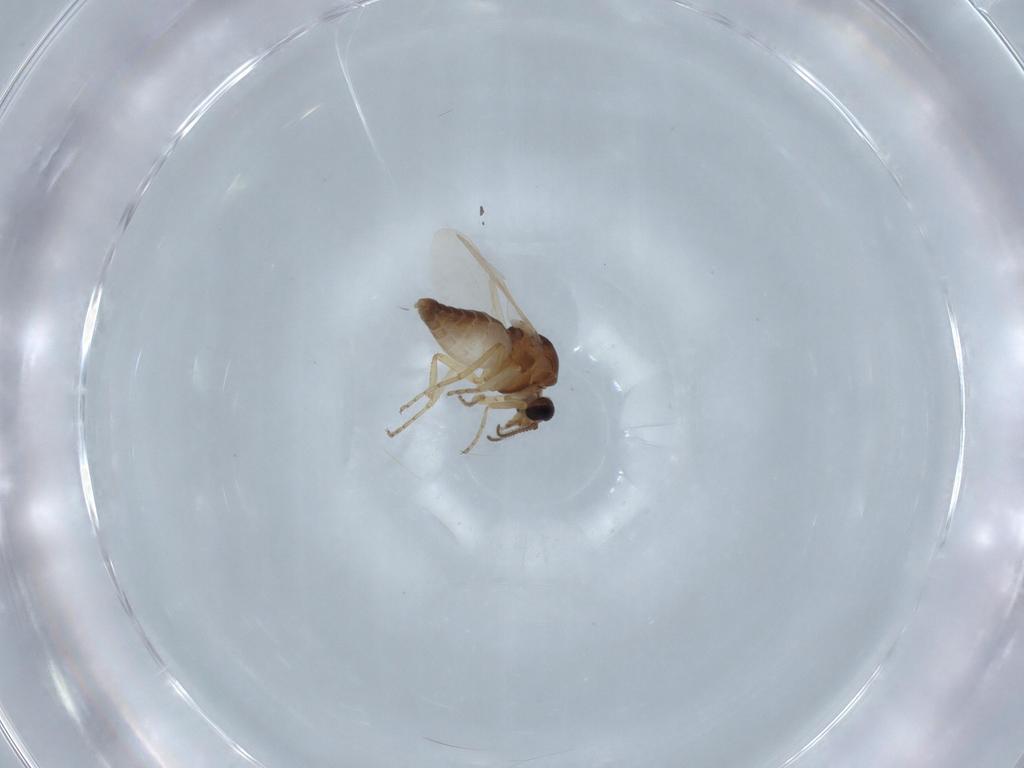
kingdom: Animalia
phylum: Arthropoda
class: Insecta
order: Diptera
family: Ceratopogonidae
